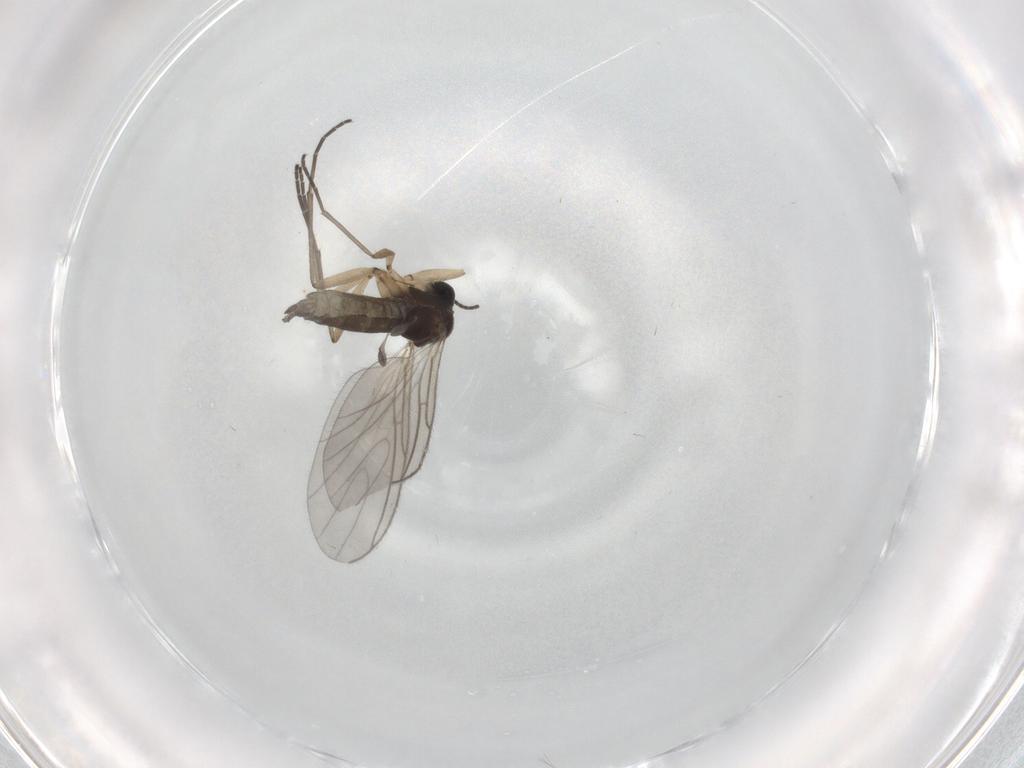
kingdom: Animalia
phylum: Arthropoda
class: Insecta
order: Diptera
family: Sciaridae
